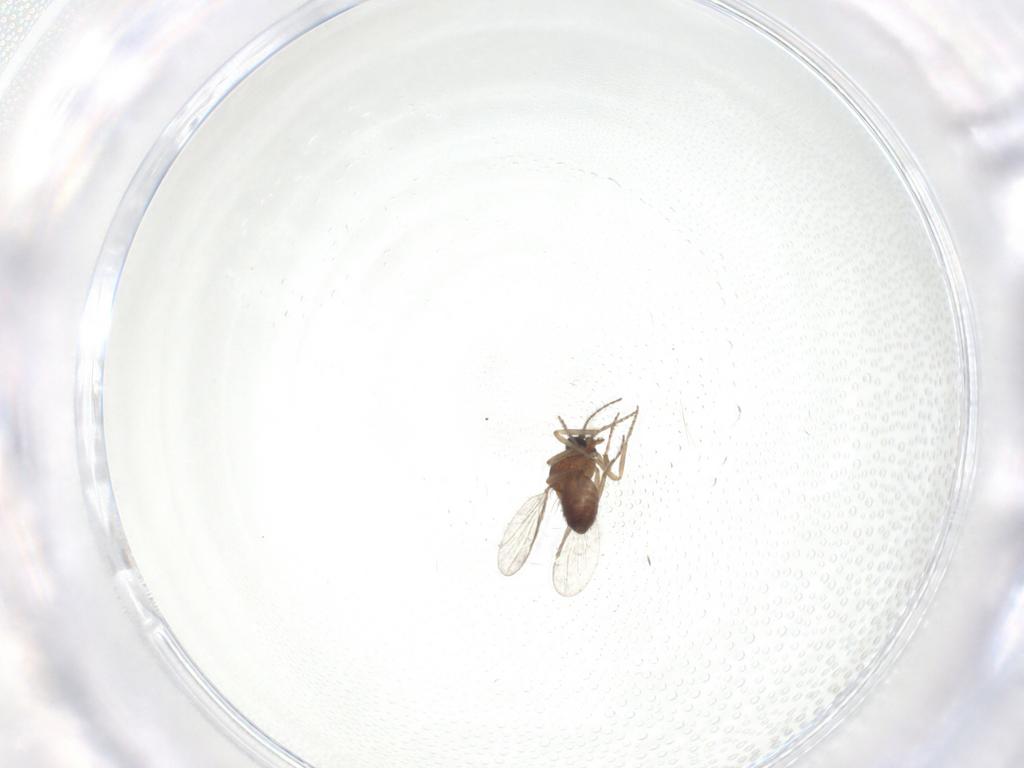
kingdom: Animalia
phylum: Arthropoda
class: Insecta
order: Diptera
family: Ceratopogonidae
